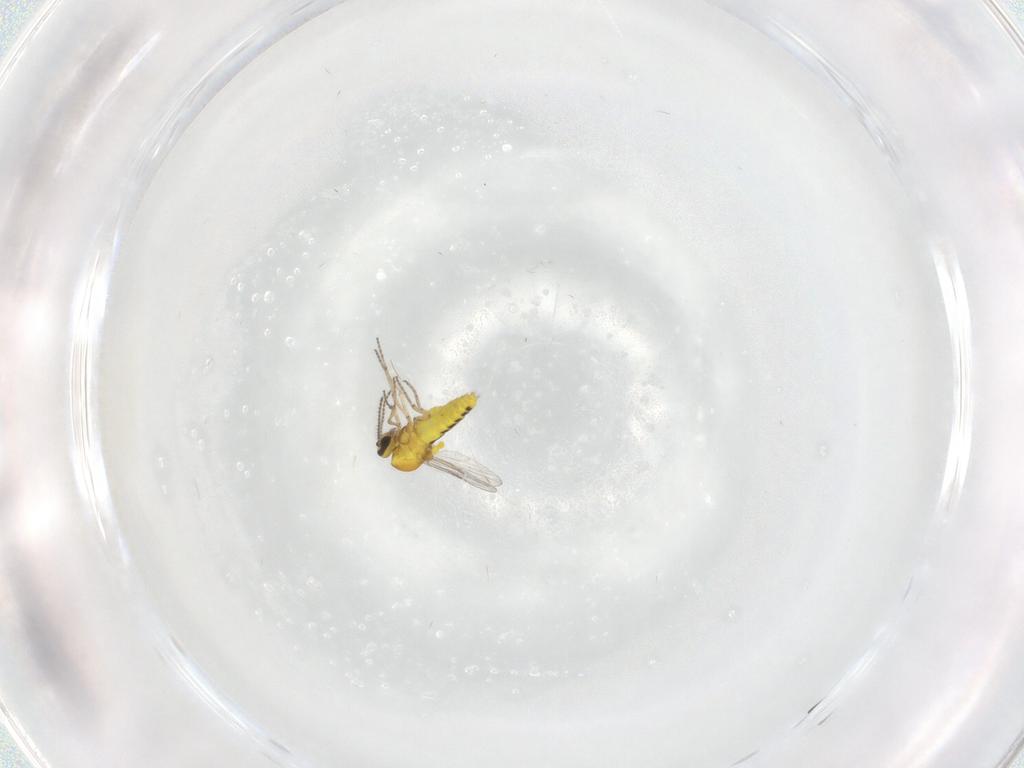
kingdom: Animalia
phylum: Arthropoda
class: Insecta
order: Diptera
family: Ceratopogonidae
